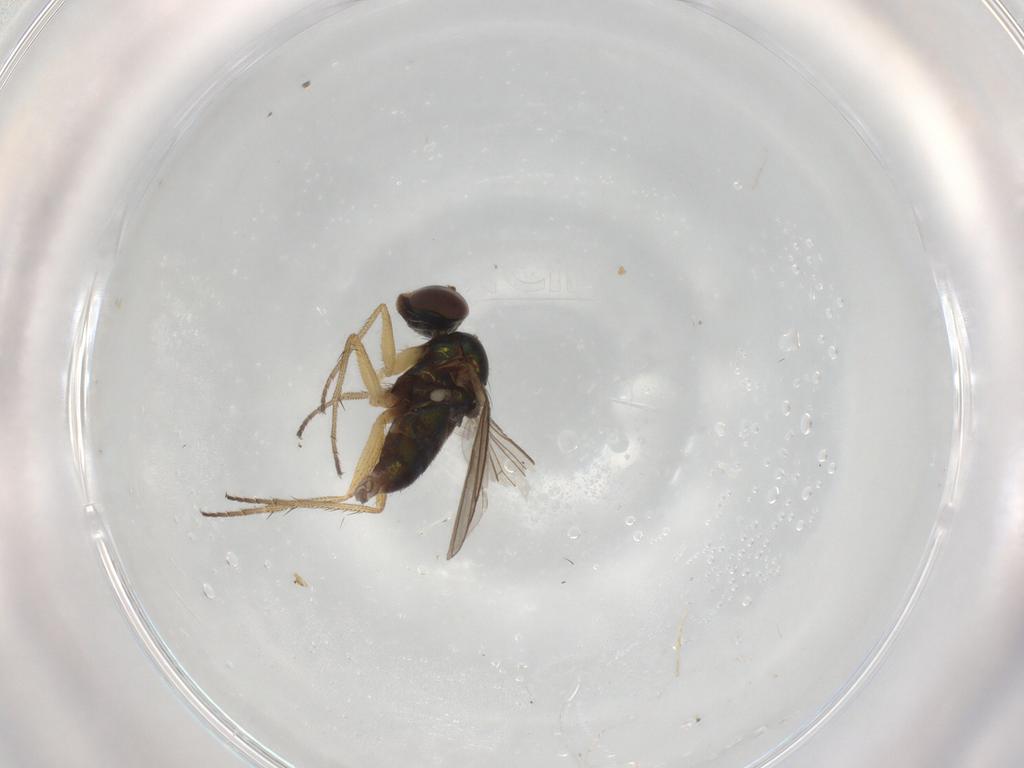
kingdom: Animalia
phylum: Arthropoda
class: Insecta
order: Diptera
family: Cecidomyiidae
